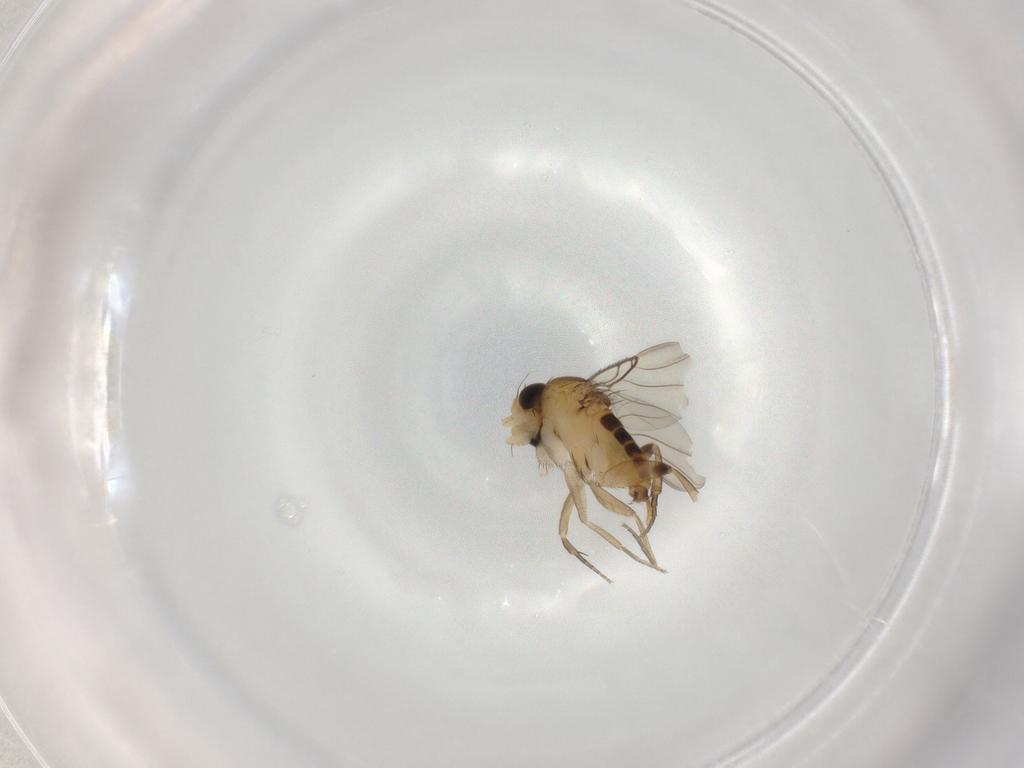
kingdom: Animalia
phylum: Arthropoda
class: Insecta
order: Diptera
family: Phoridae
